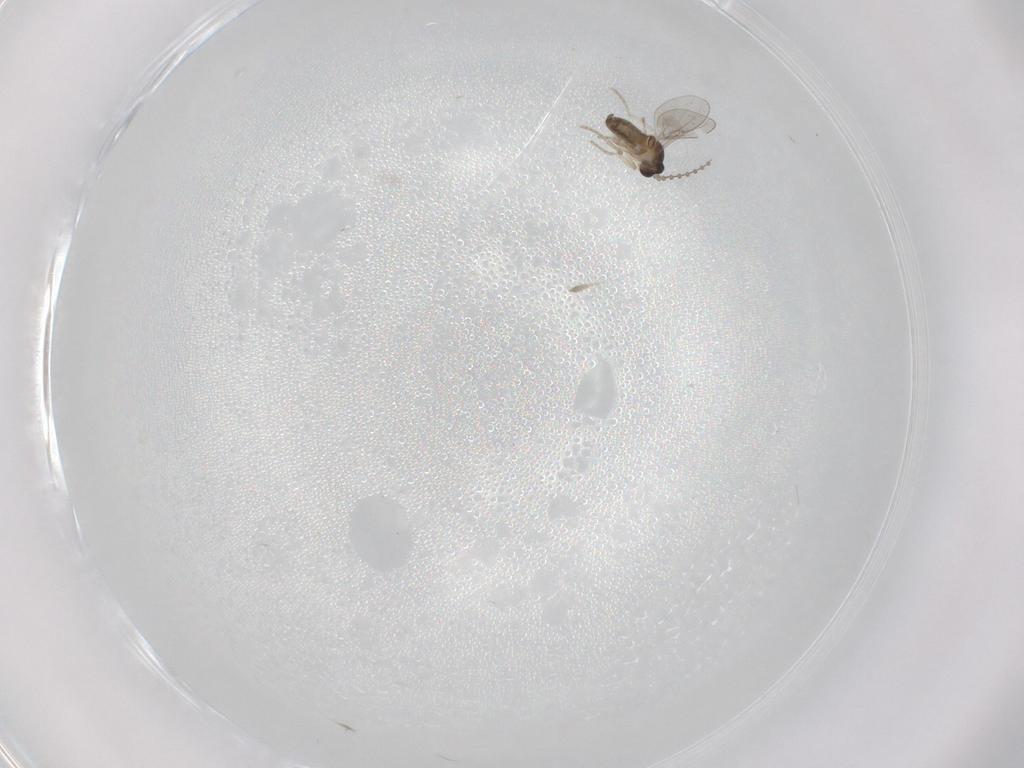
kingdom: Animalia
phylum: Arthropoda
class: Insecta
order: Diptera
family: Cecidomyiidae
